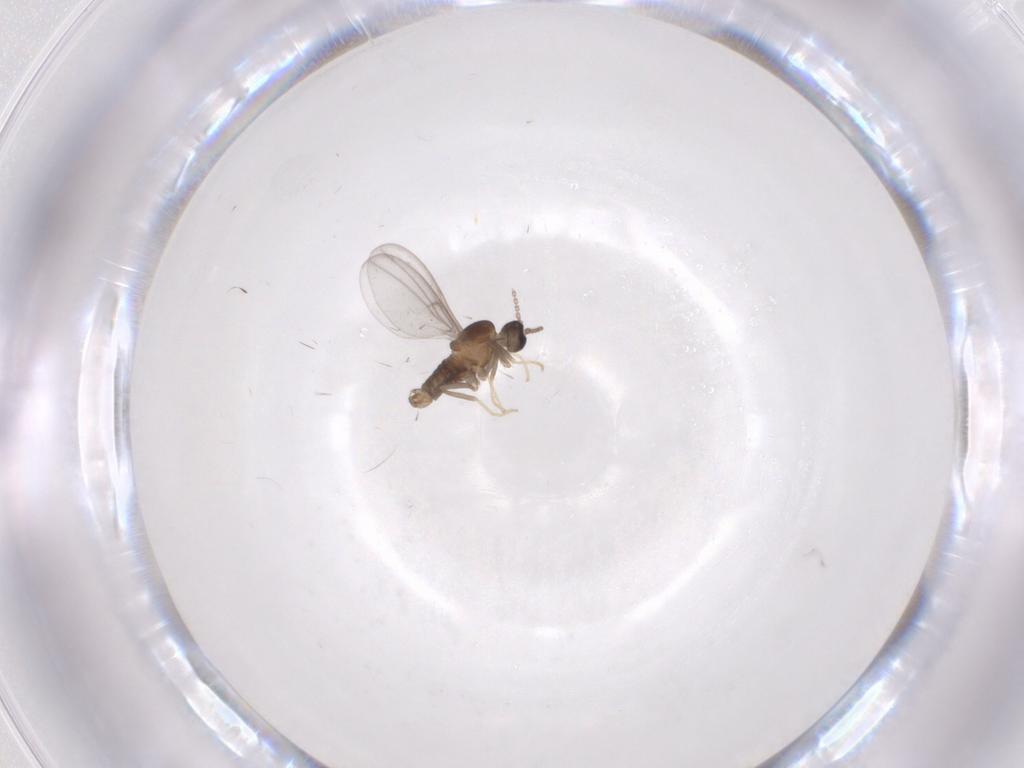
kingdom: Animalia
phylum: Arthropoda
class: Insecta
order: Diptera
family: Cecidomyiidae
